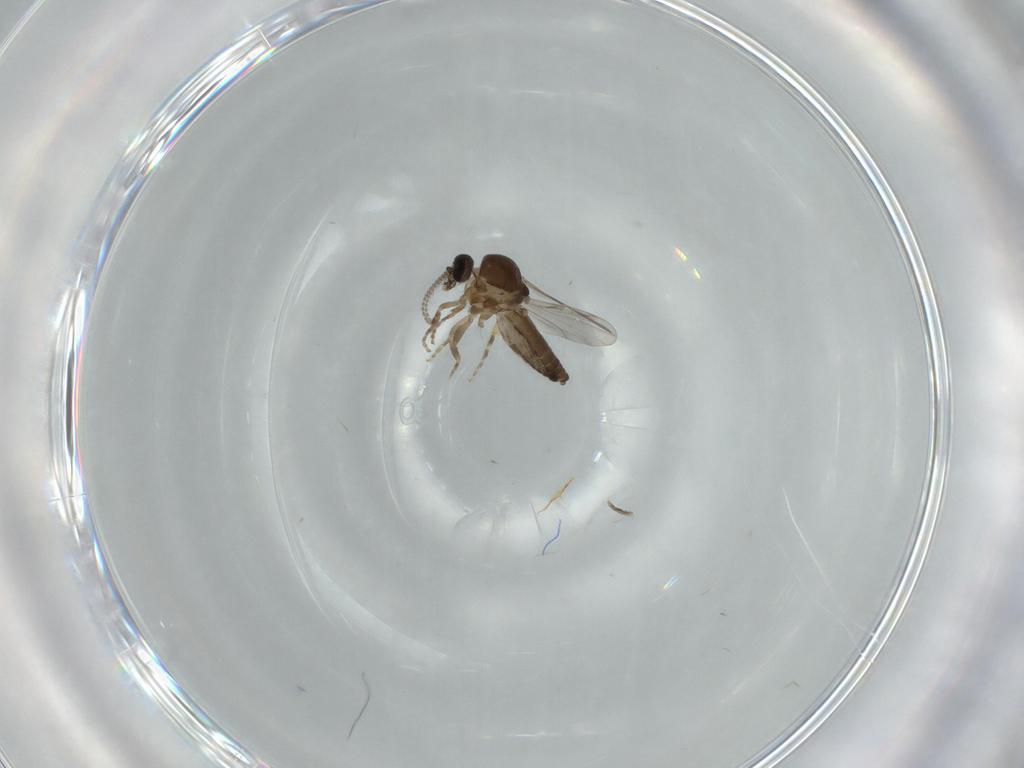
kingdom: Animalia
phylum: Arthropoda
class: Insecta
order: Diptera
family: Ceratopogonidae
